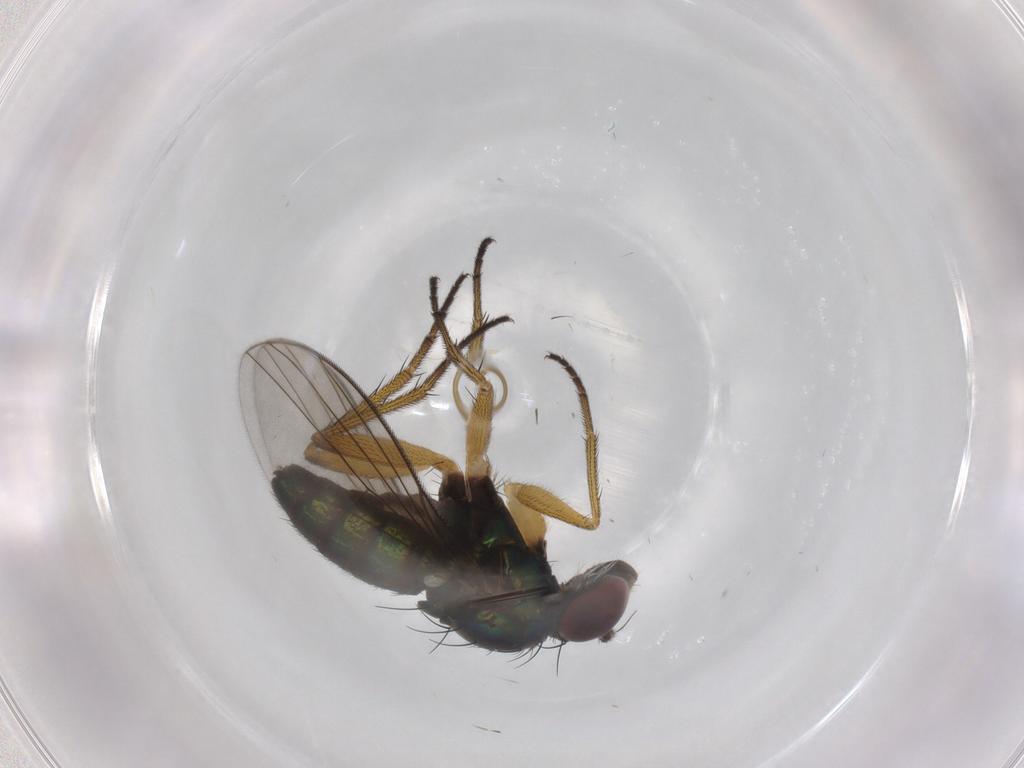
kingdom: Animalia
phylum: Arthropoda
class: Insecta
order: Diptera
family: Dolichopodidae
